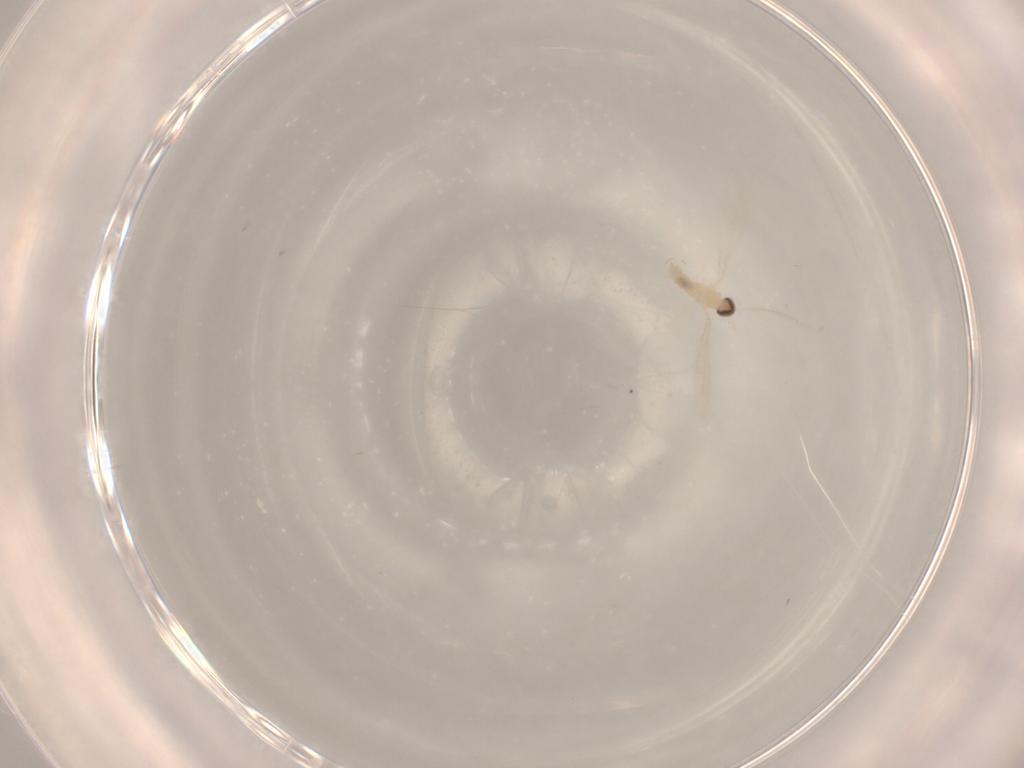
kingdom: Animalia
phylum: Arthropoda
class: Insecta
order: Diptera
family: Cecidomyiidae
